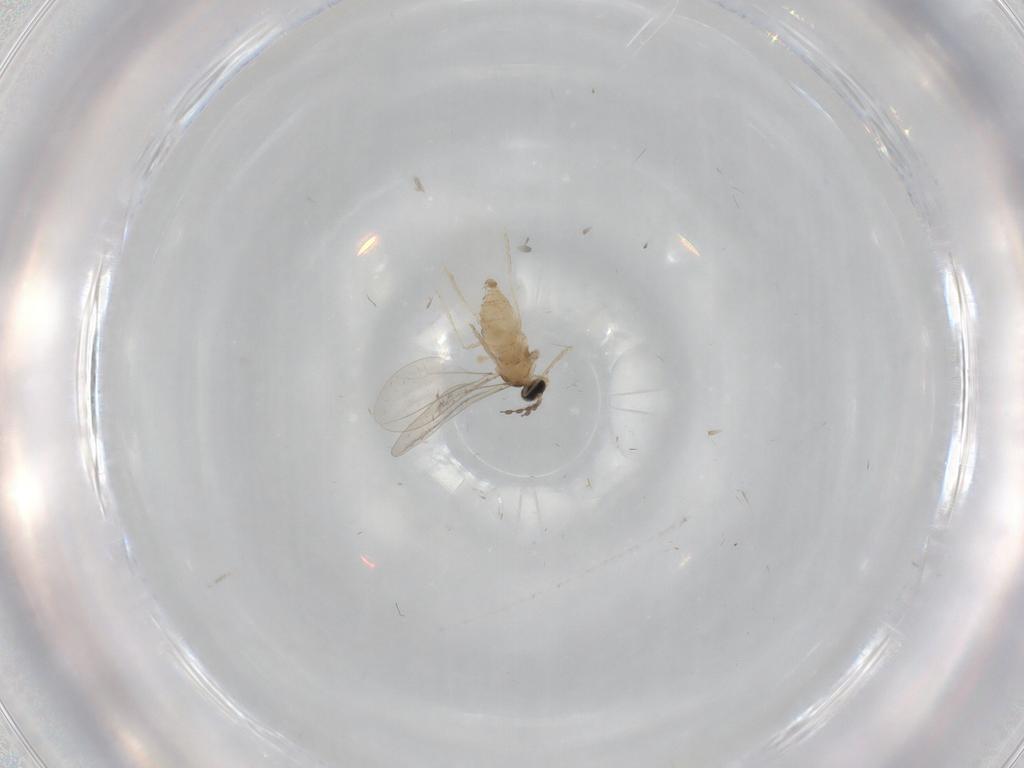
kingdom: Animalia
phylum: Arthropoda
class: Insecta
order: Diptera
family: Cecidomyiidae
